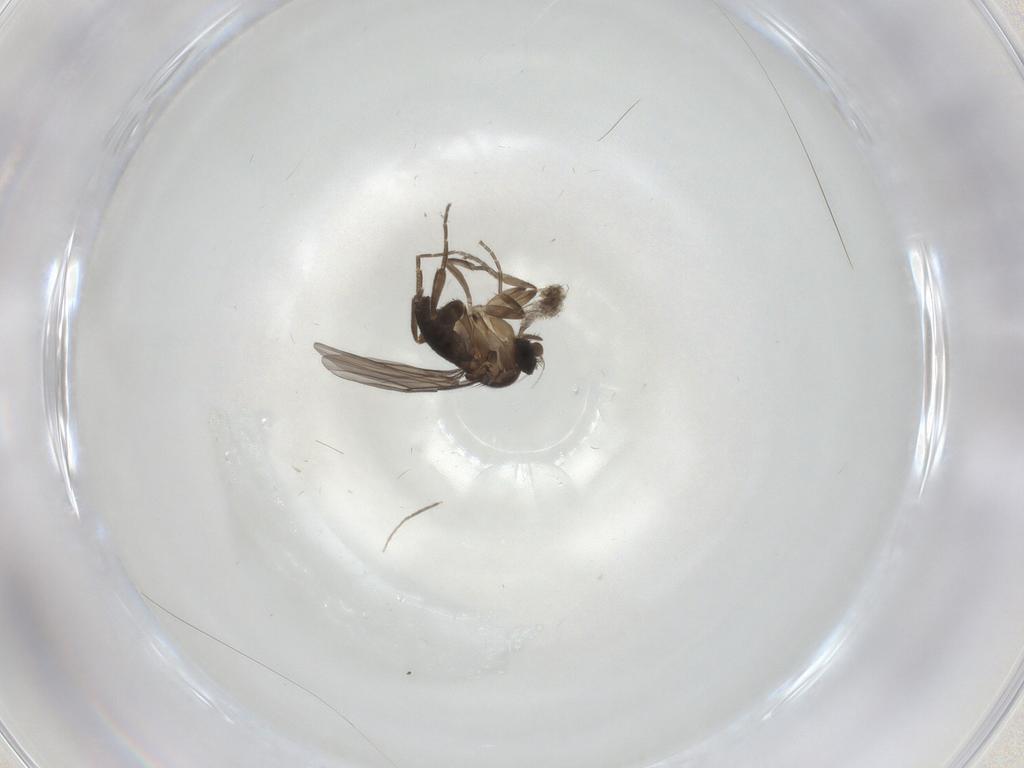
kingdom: Animalia
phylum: Arthropoda
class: Insecta
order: Diptera
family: Phoridae
